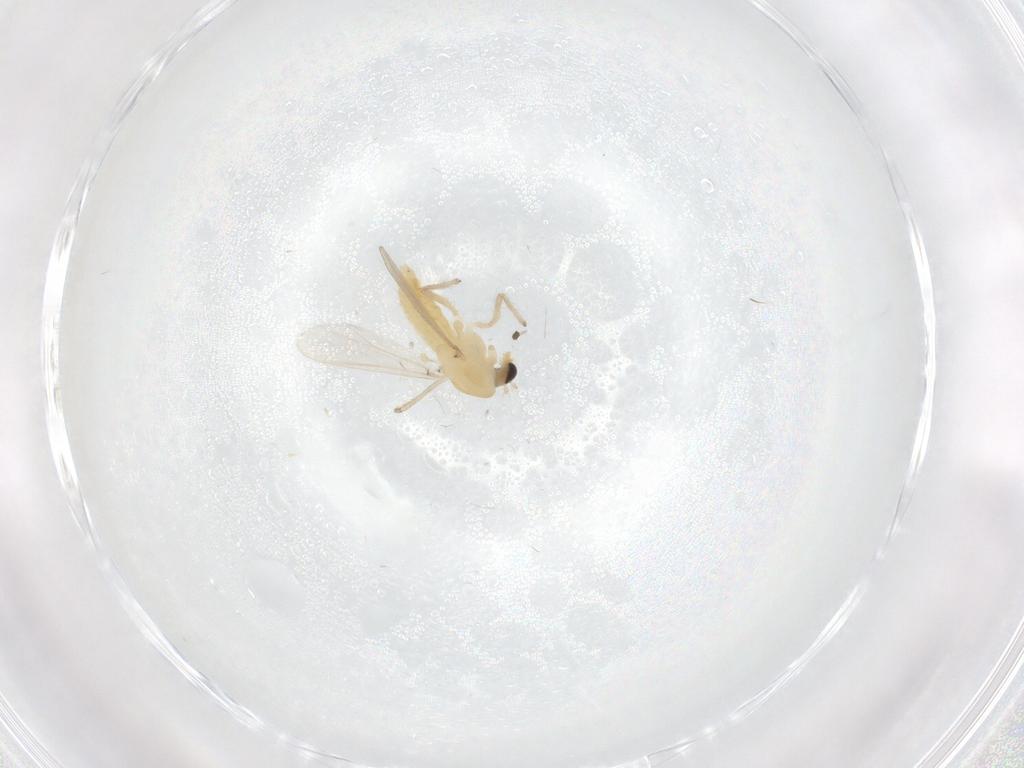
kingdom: Animalia
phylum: Arthropoda
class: Insecta
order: Diptera
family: Chironomidae
